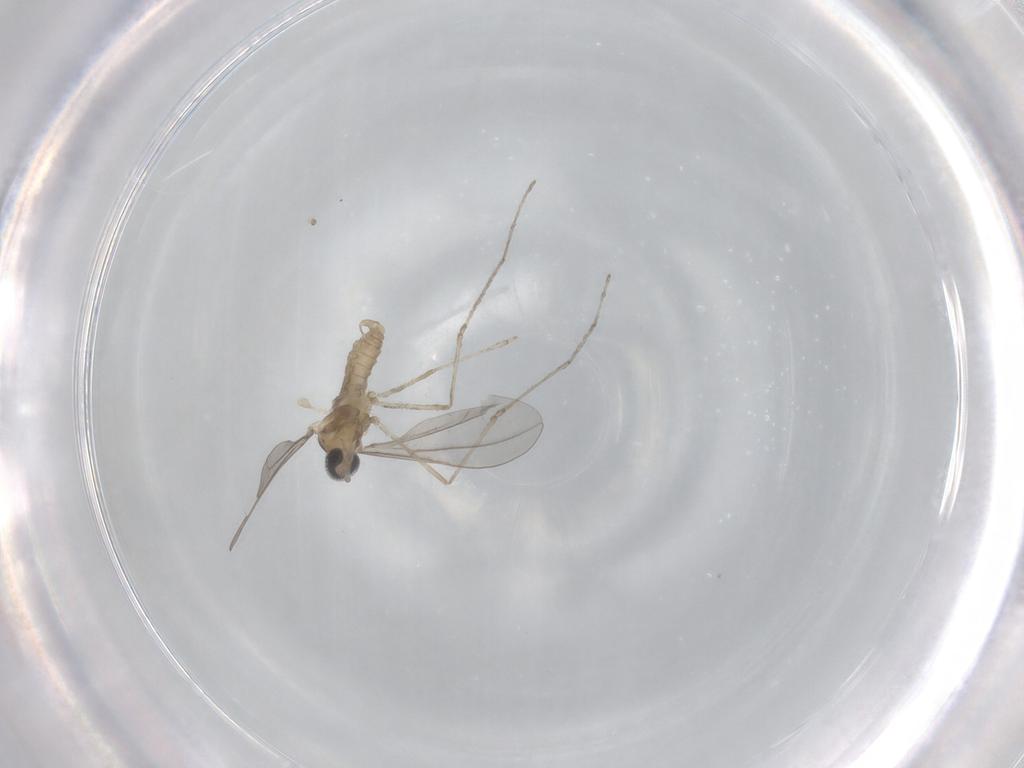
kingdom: Animalia
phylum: Arthropoda
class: Insecta
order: Diptera
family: Cecidomyiidae
